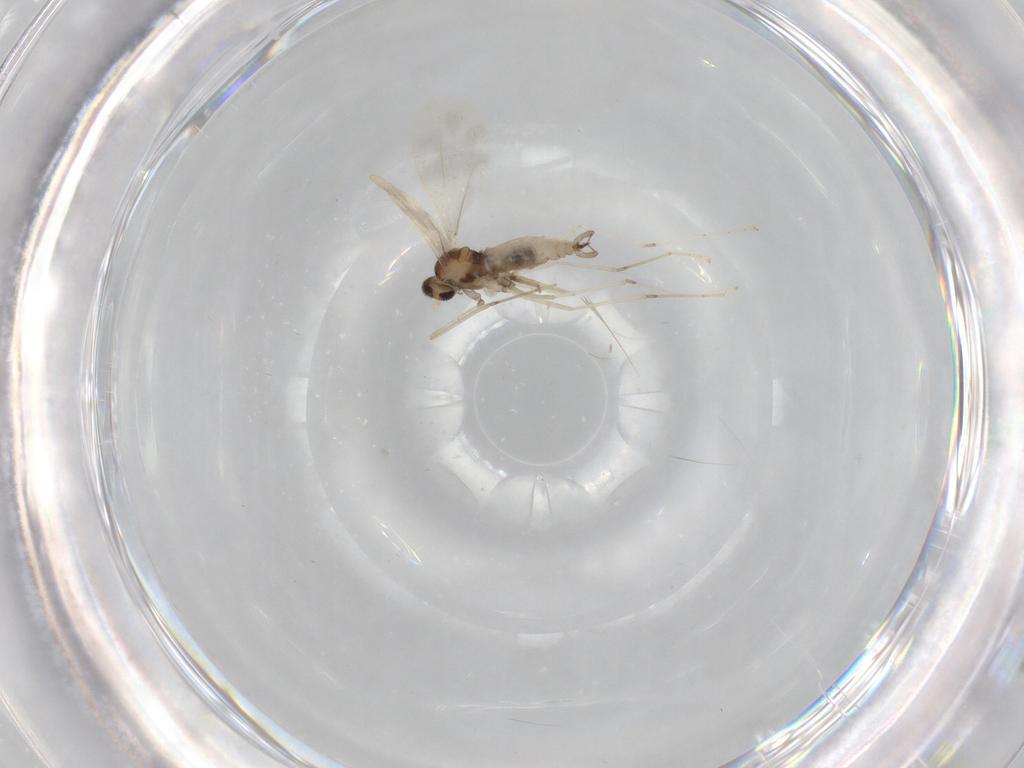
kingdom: Animalia
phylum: Arthropoda
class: Insecta
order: Diptera
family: Cecidomyiidae
